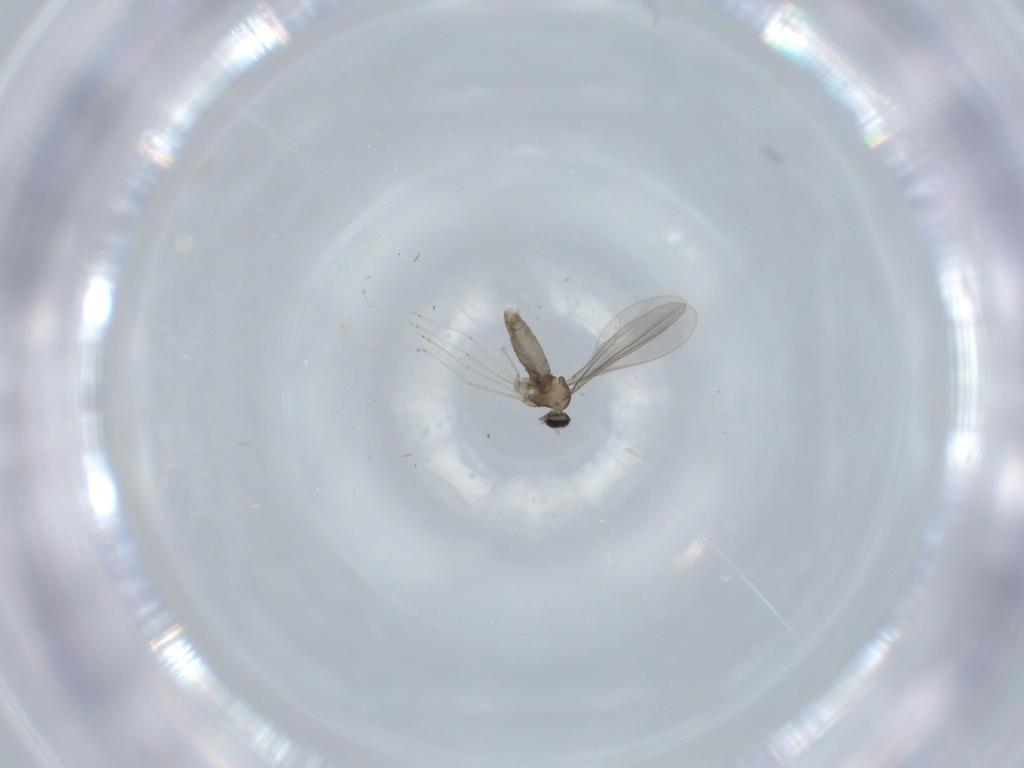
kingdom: Animalia
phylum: Arthropoda
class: Insecta
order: Diptera
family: Cecidomyiidae
